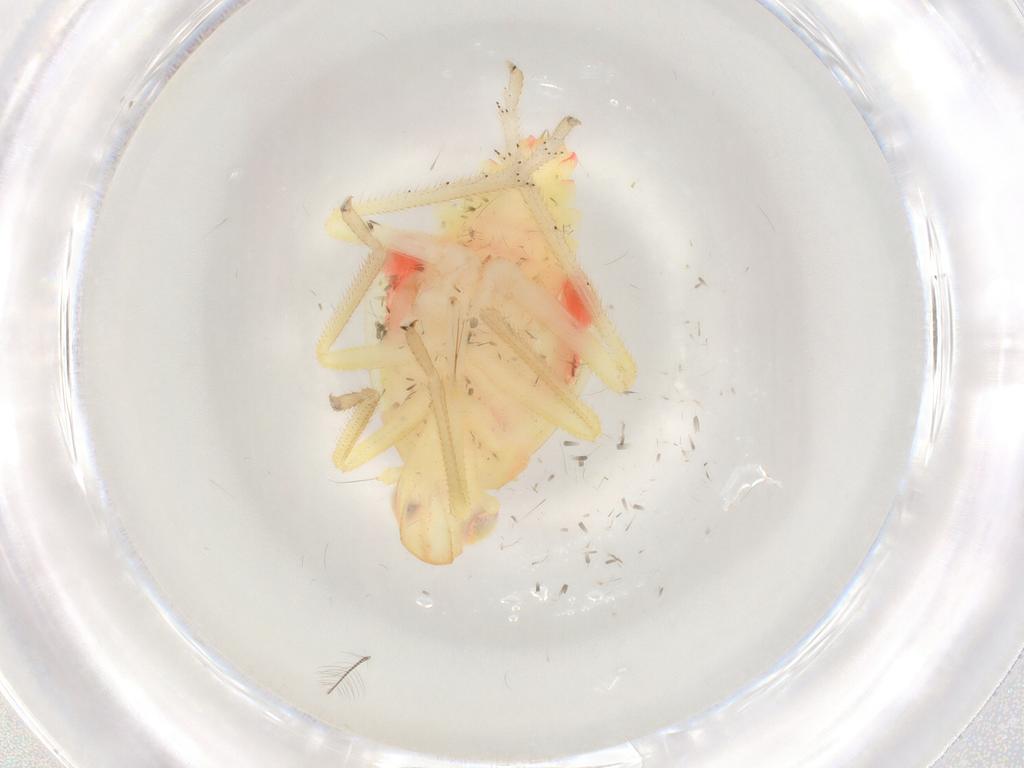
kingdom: Animalia
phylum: Arthropoda
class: Insecta
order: Hemiptera
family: Tropiduchidae
